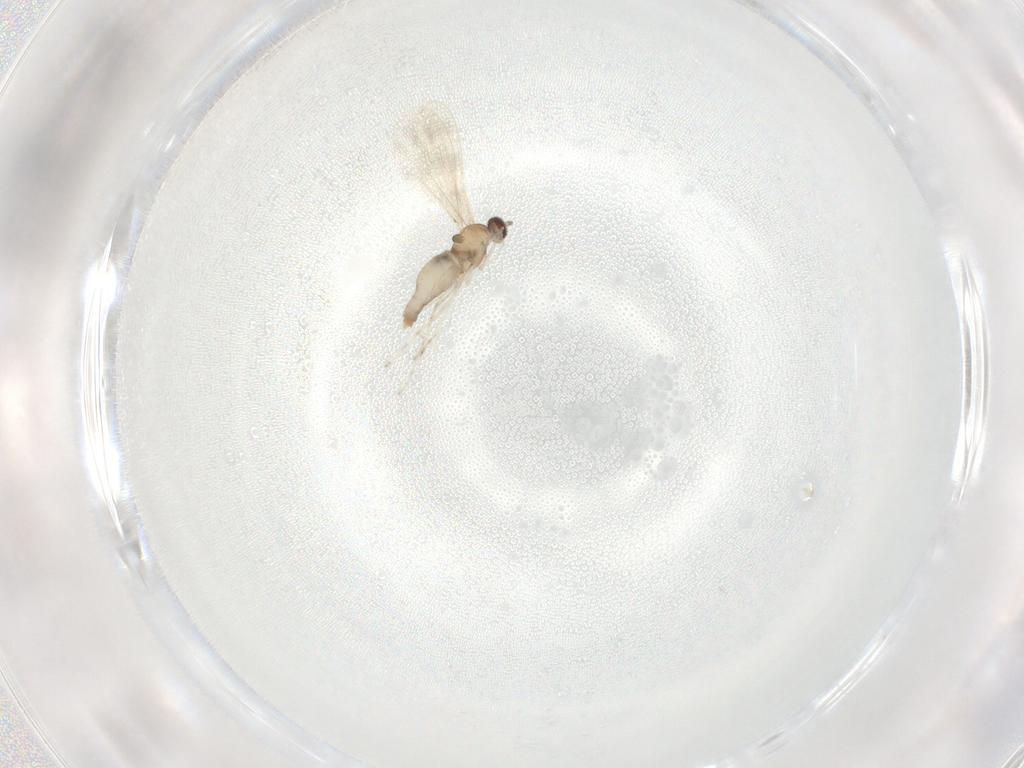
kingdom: Animalia
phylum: Arthropoda
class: Insecta
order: Diptera
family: Cecidomyiidae
